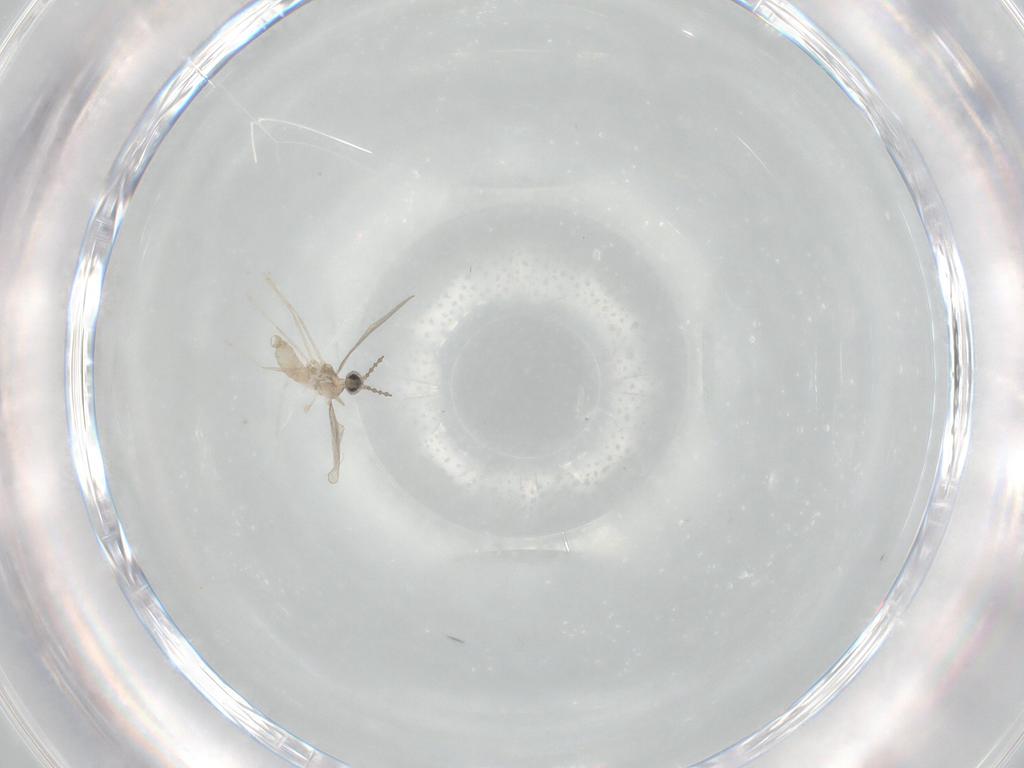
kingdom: Animalia
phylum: Arthropoda
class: Insecta
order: Diptera
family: Cecidomyiidae
